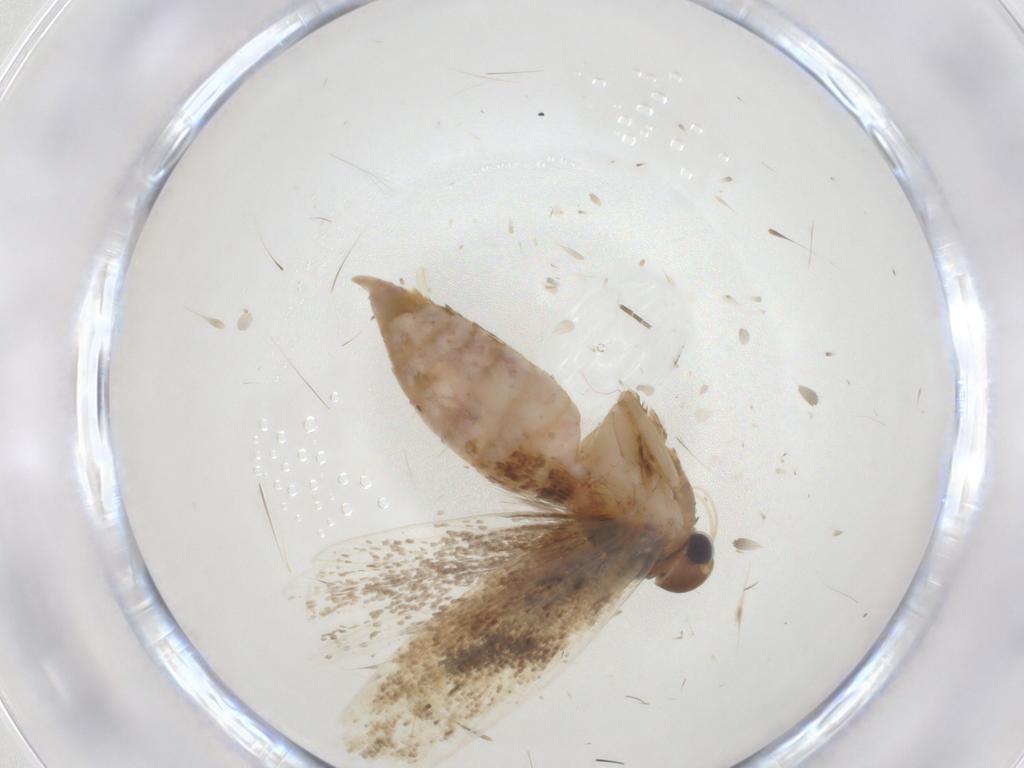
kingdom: Animalia
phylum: Arthropoda
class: Insecta
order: Lepidoptera
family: Gelechiidae
